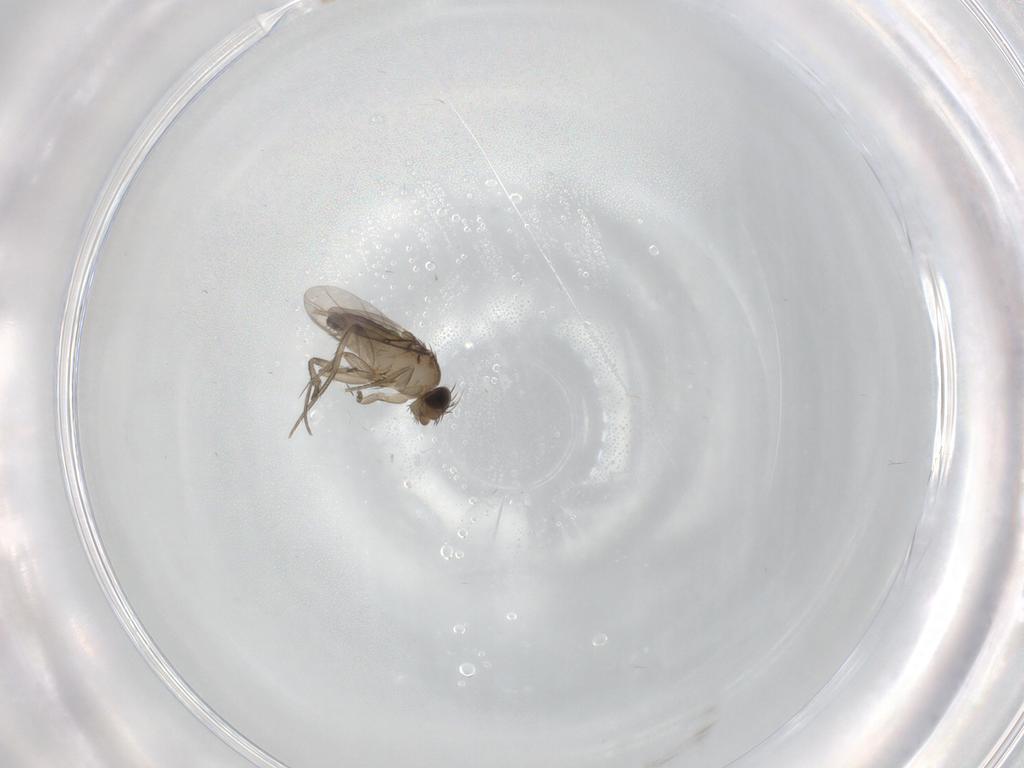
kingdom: Animalia
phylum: Arthropoda
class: Insecta
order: Diptera
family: Phoridae
